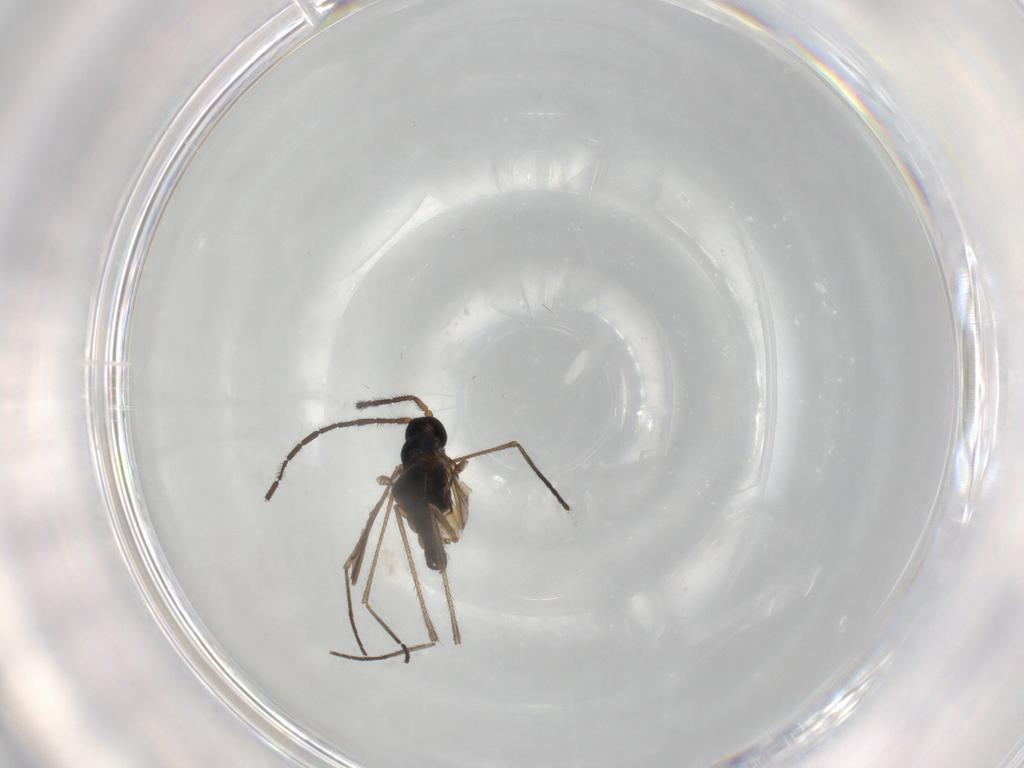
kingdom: Animalia
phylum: Arthropoda
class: Insecta
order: Diptera
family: Sciaridae
